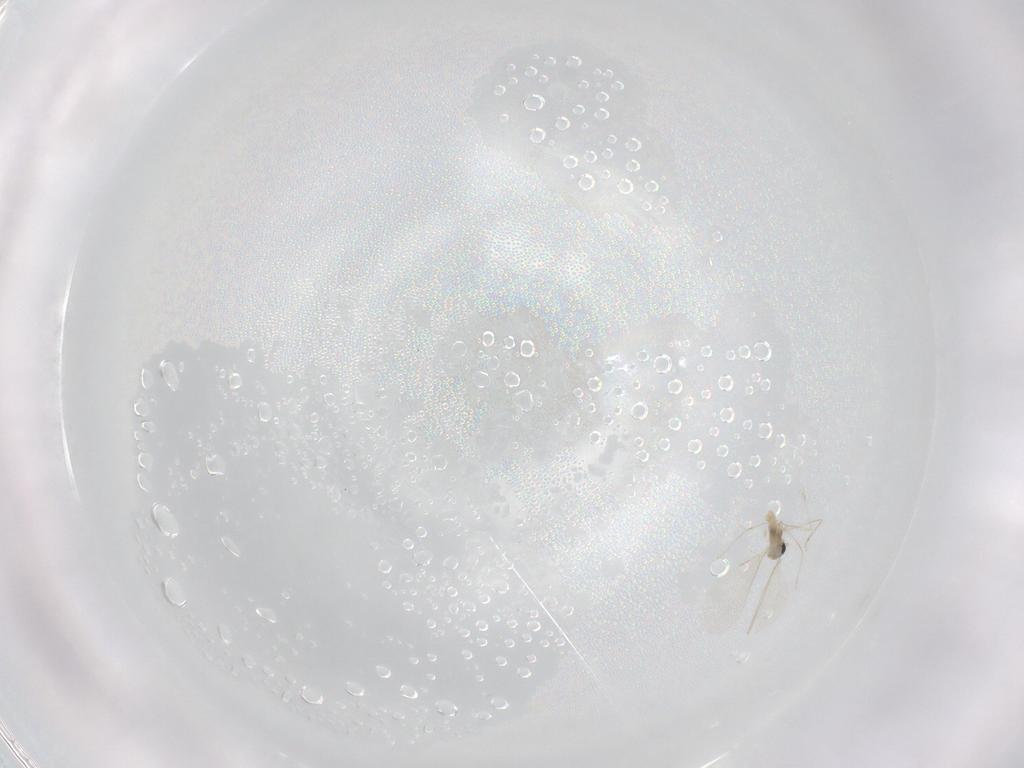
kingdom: Animalia
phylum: Arthropoda
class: Insecta
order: Diptera
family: Cecidomyiidae
